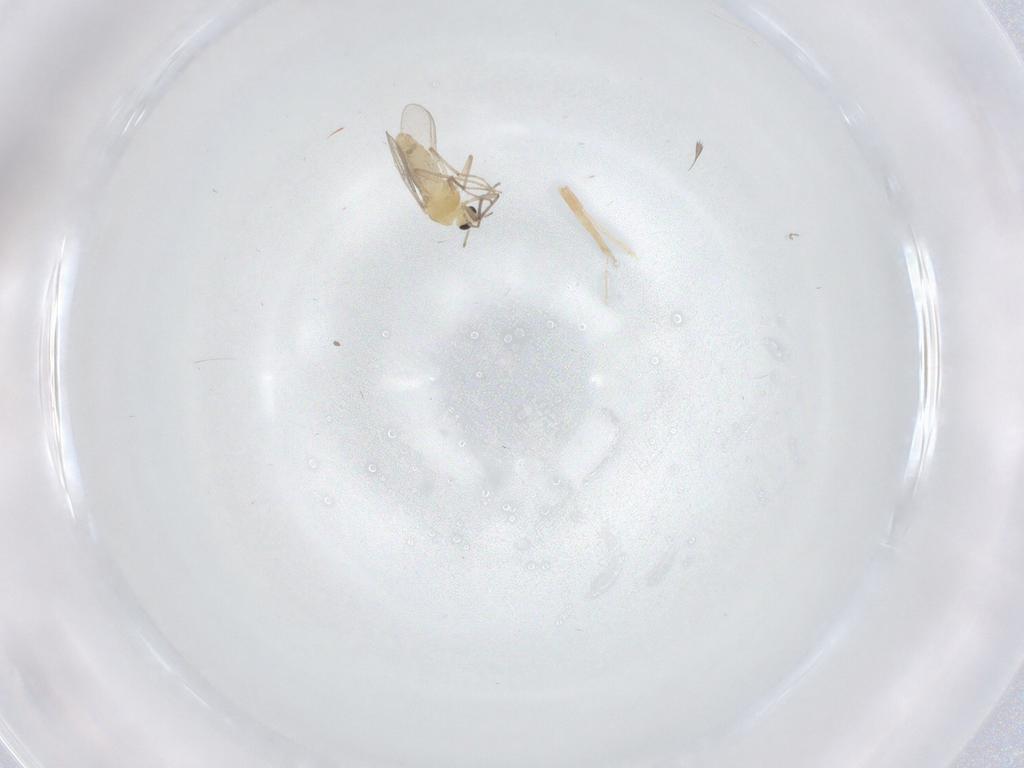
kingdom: Animalia
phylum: Arthropoda
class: Insecta
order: Diptera
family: Chironomidae
